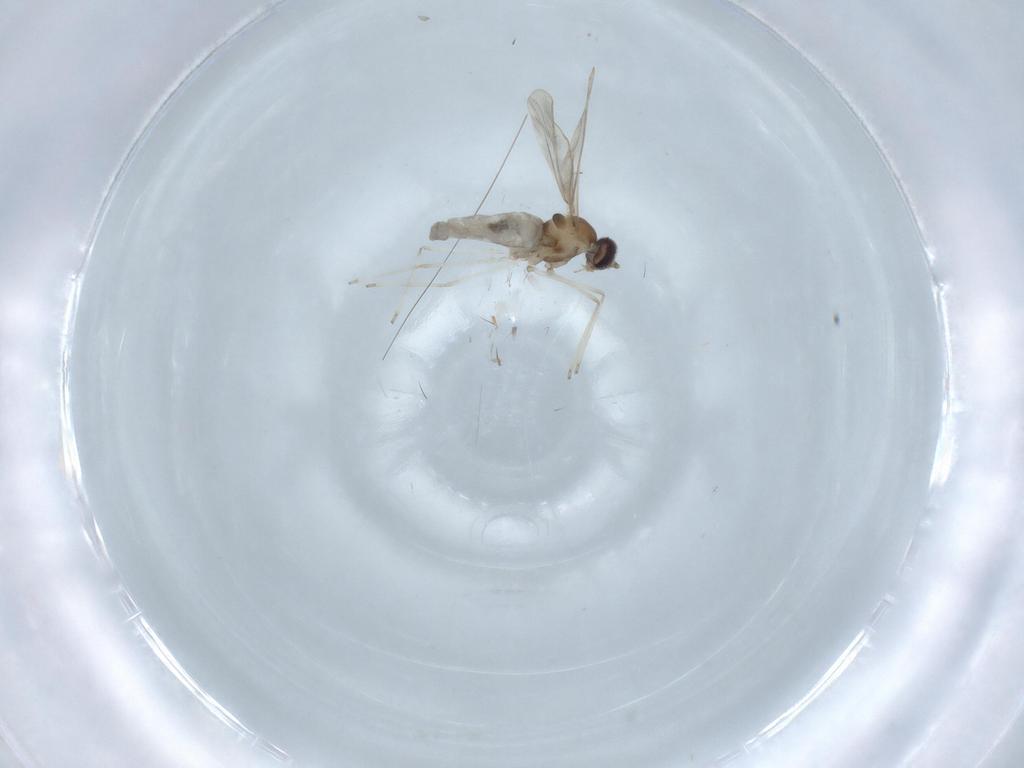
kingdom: Animalia
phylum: Arthropoda
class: Insecta
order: Diptera
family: Cecidomyiidae
